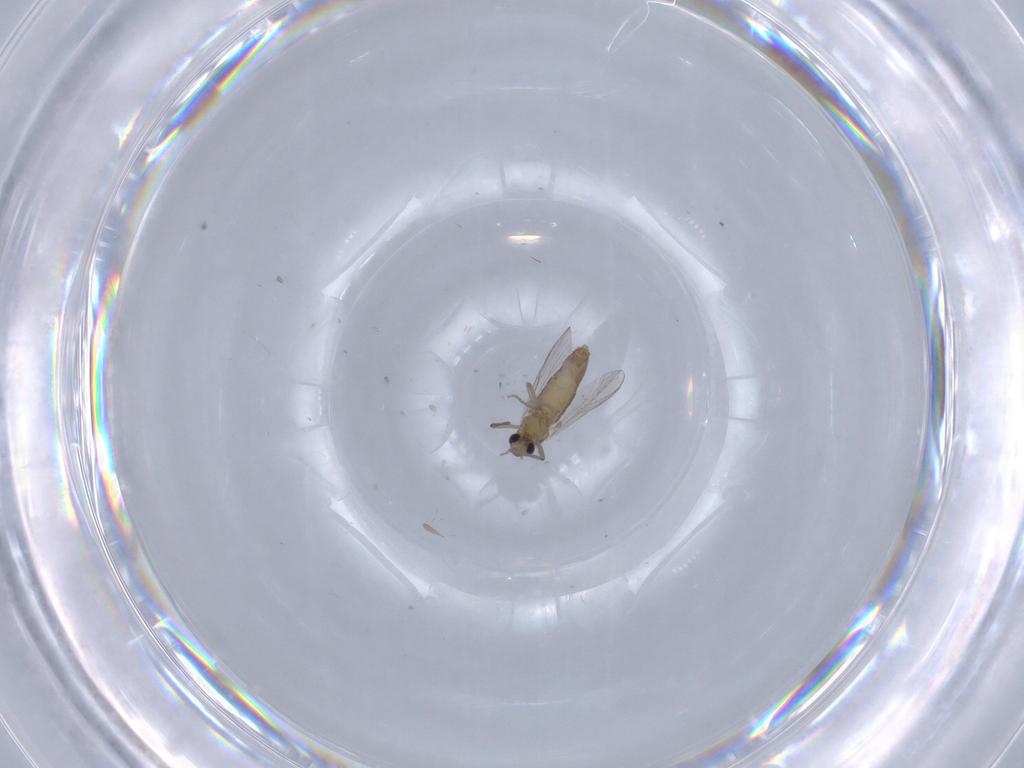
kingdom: Animalia
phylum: Arthropoda
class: Insecta
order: Diptera
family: Chironomidae
